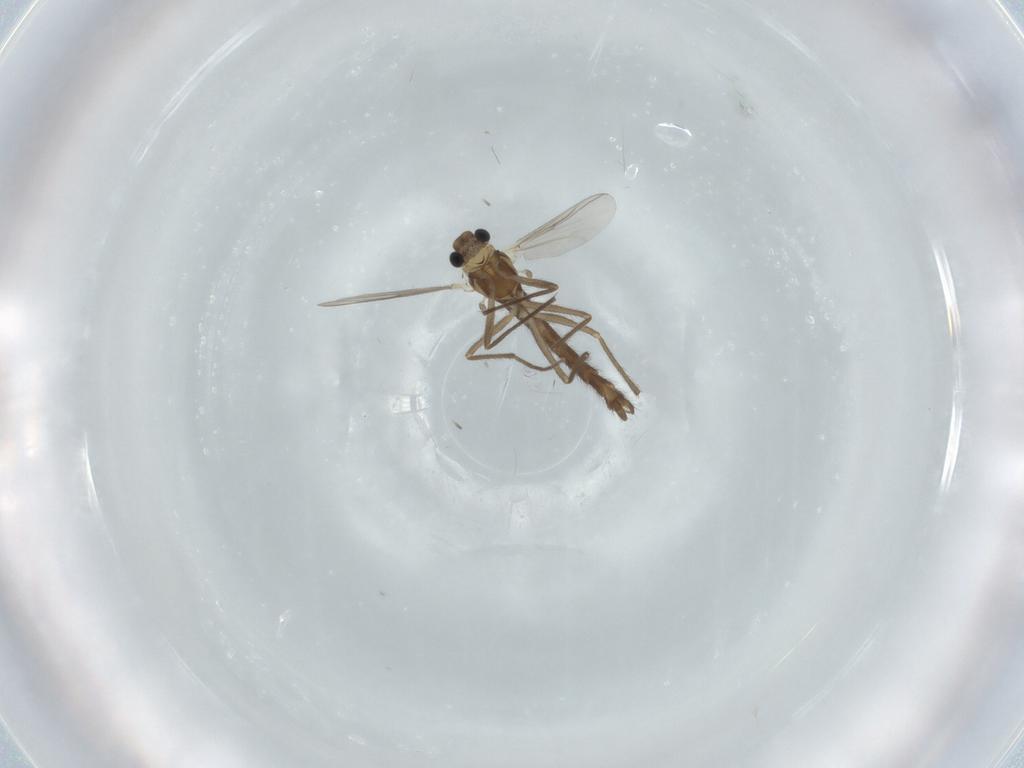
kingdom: Animalia
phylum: Arthropoda
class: Insecta
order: Diptera
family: Chironomidae
